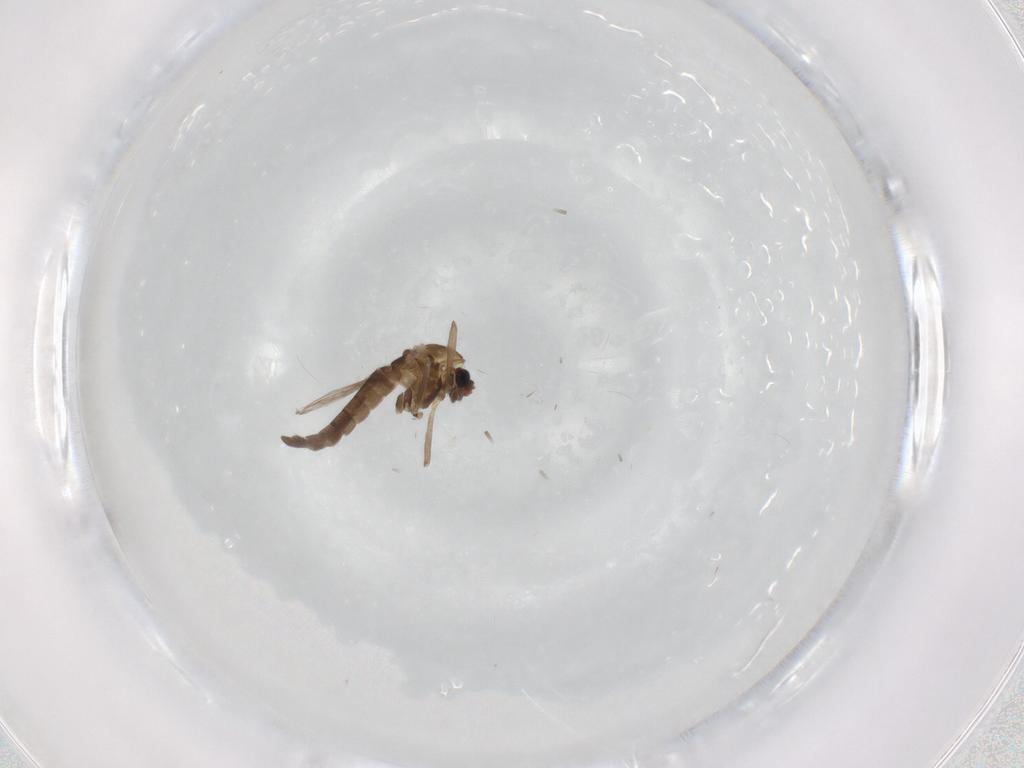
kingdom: Animalia
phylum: Arthropoda
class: Insecta
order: Diptera
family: Chironomidae
